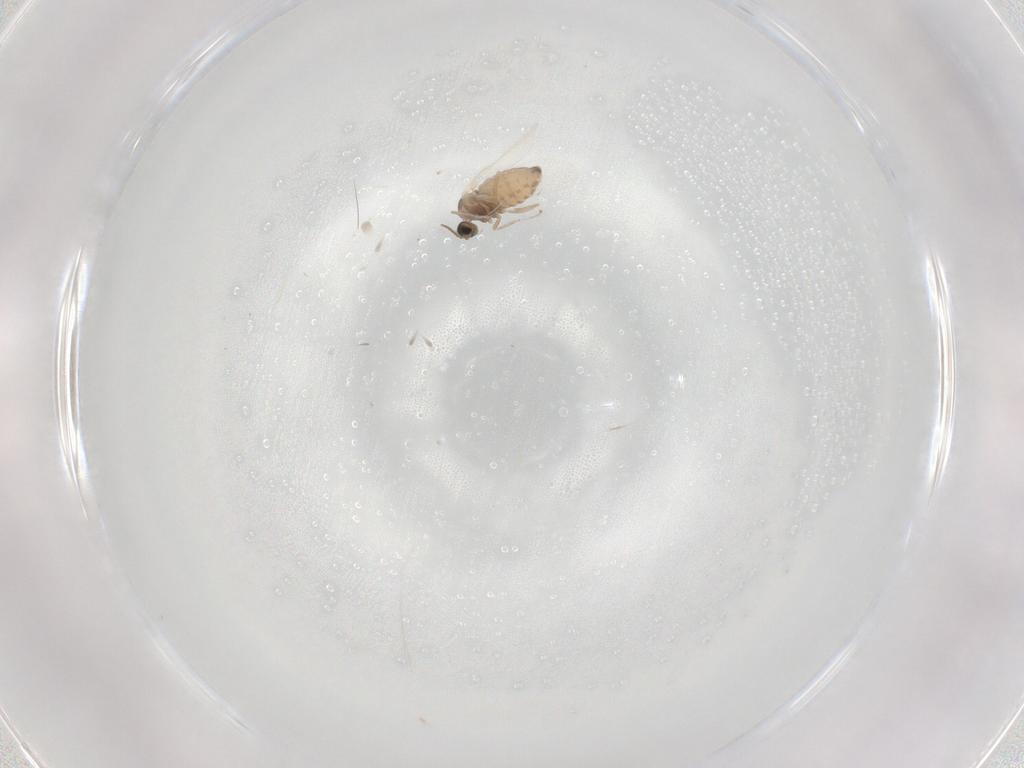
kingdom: Animalia
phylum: Arthropoda
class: Insecta
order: Diptera
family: Cecidomyiidae
